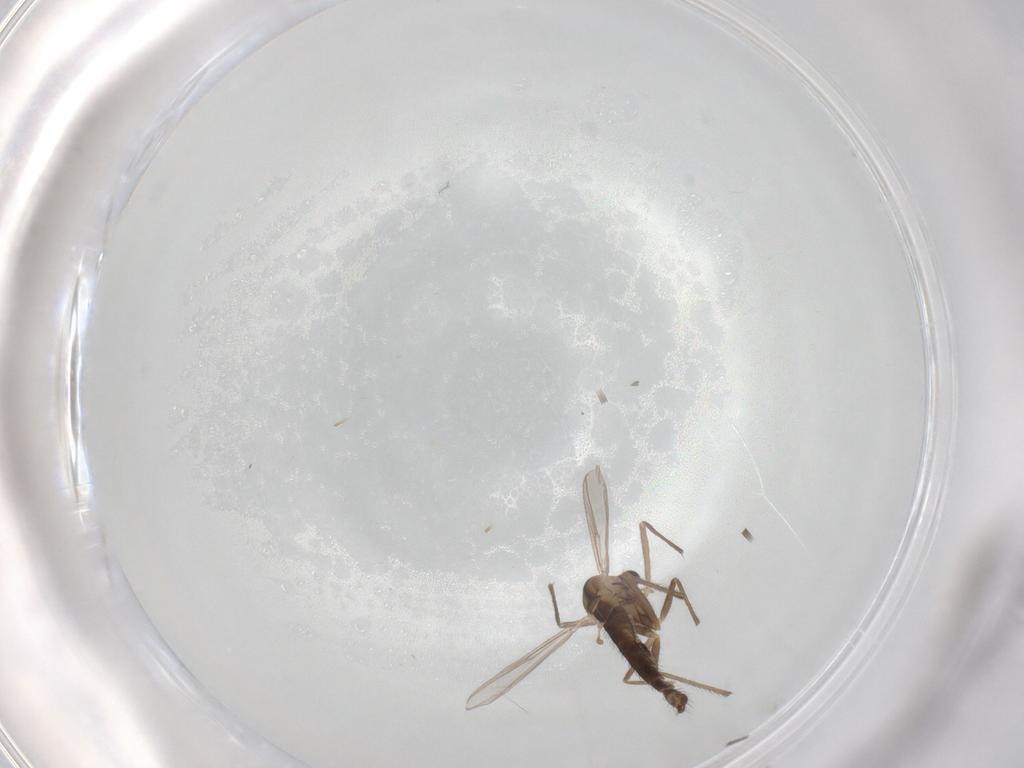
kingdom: Animalia
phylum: Arthropoda
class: Insecta
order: Diptera
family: Chironomidae
